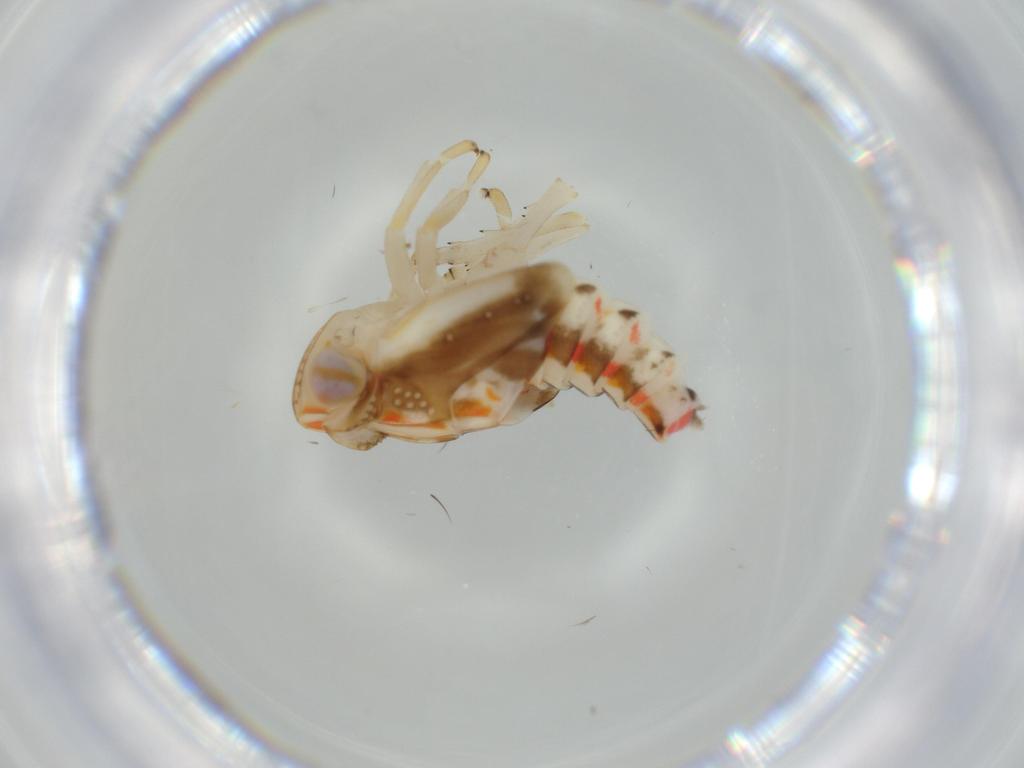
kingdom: Animalia
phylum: Arthropoda
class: Insecta
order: Hemiptera
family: Nogodinidae
